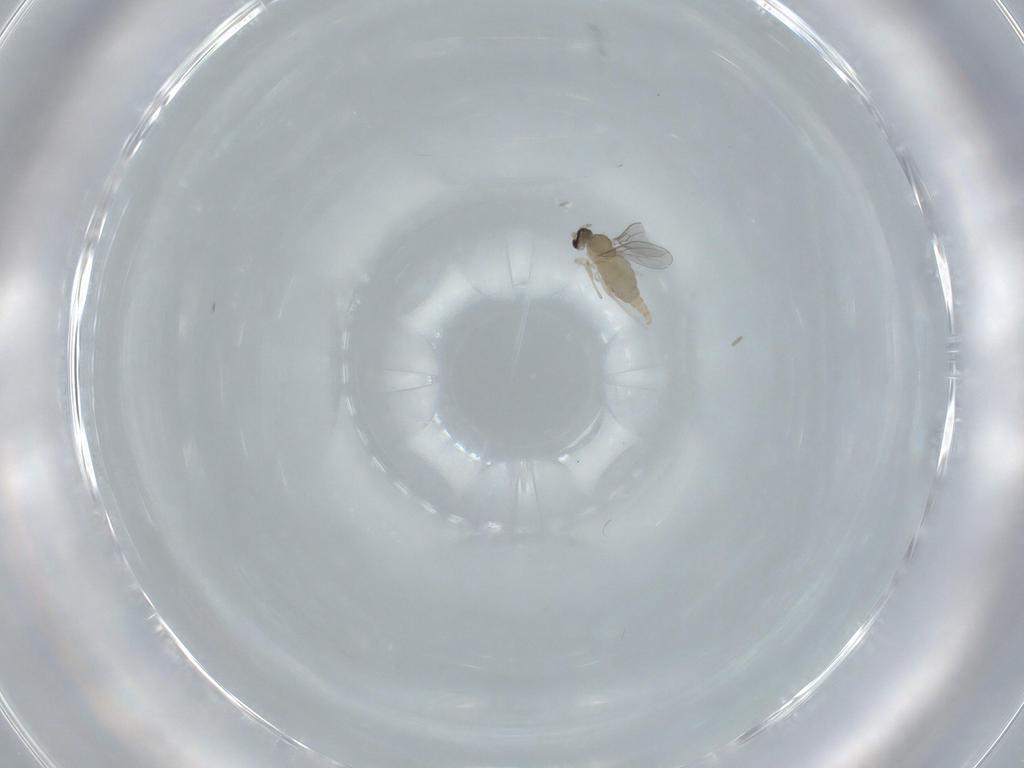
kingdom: Animalia
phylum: Arthropoda
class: Insecta
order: Diptera
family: Cecidomyiidae
